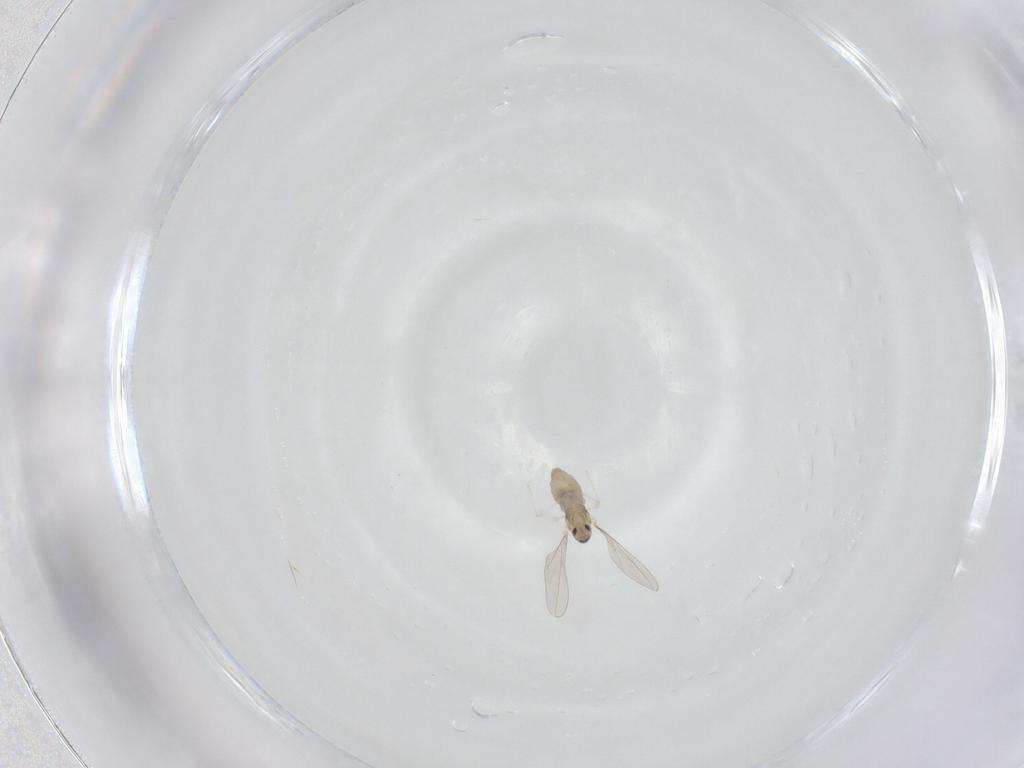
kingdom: Animalia
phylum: Arthropoda
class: Insecta
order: Diptera
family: Cecidomyiidae
